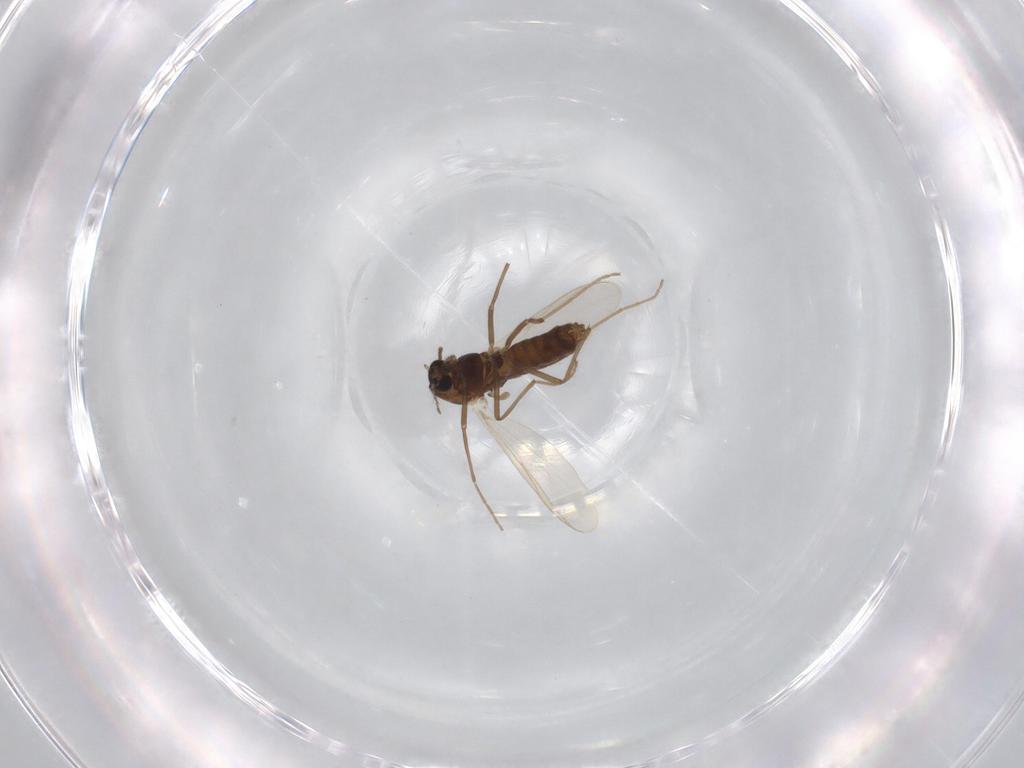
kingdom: Animalia
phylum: Arthropoda
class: Insecta
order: Diptera
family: Chironomidae
